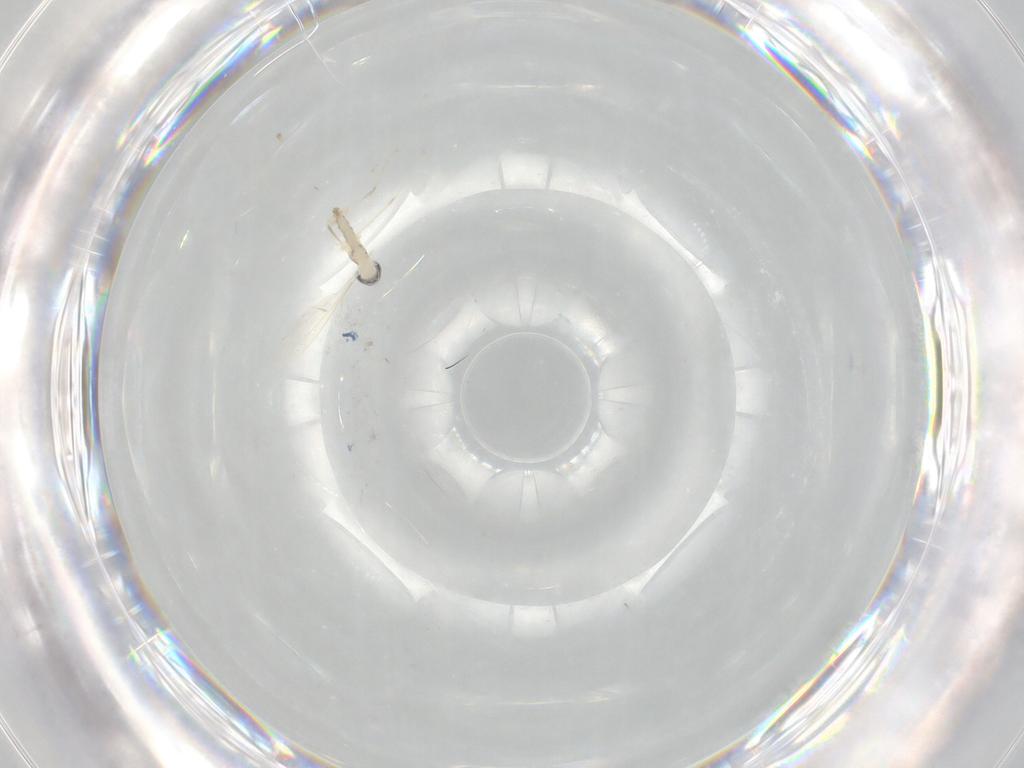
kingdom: Animalia
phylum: Arthropoda
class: Insecta
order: Diptera
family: Cecidomyiidae
